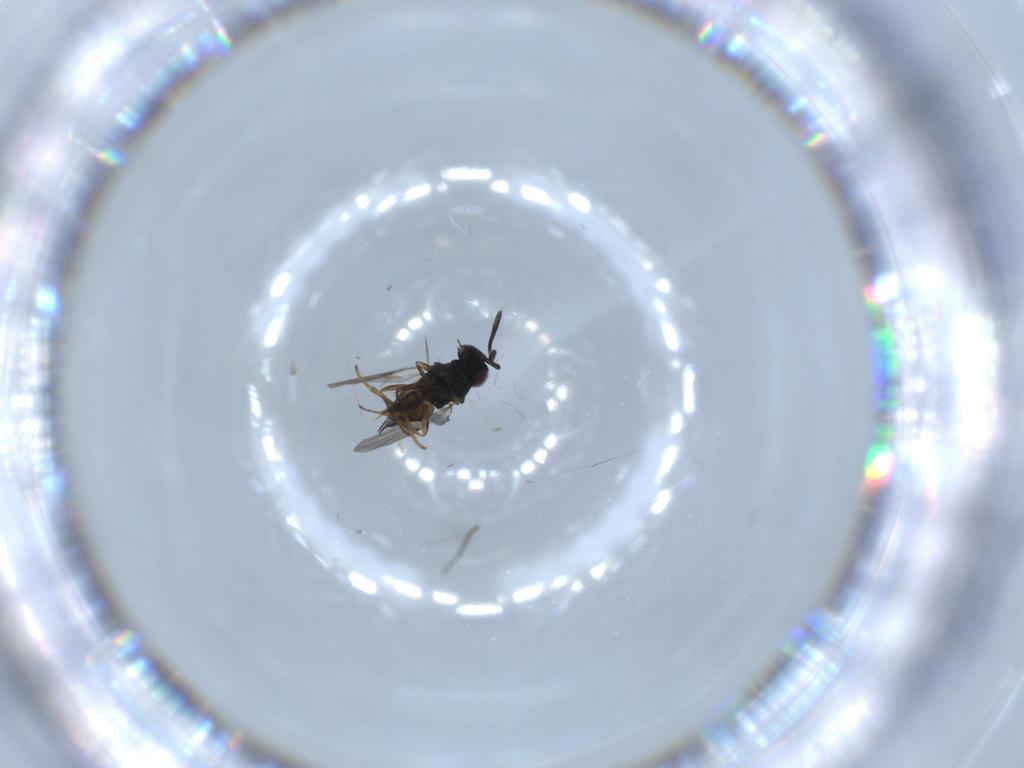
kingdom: Animalia
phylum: Arthropoda
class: Insecta
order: Hymenoptera
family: Encyrtidae
